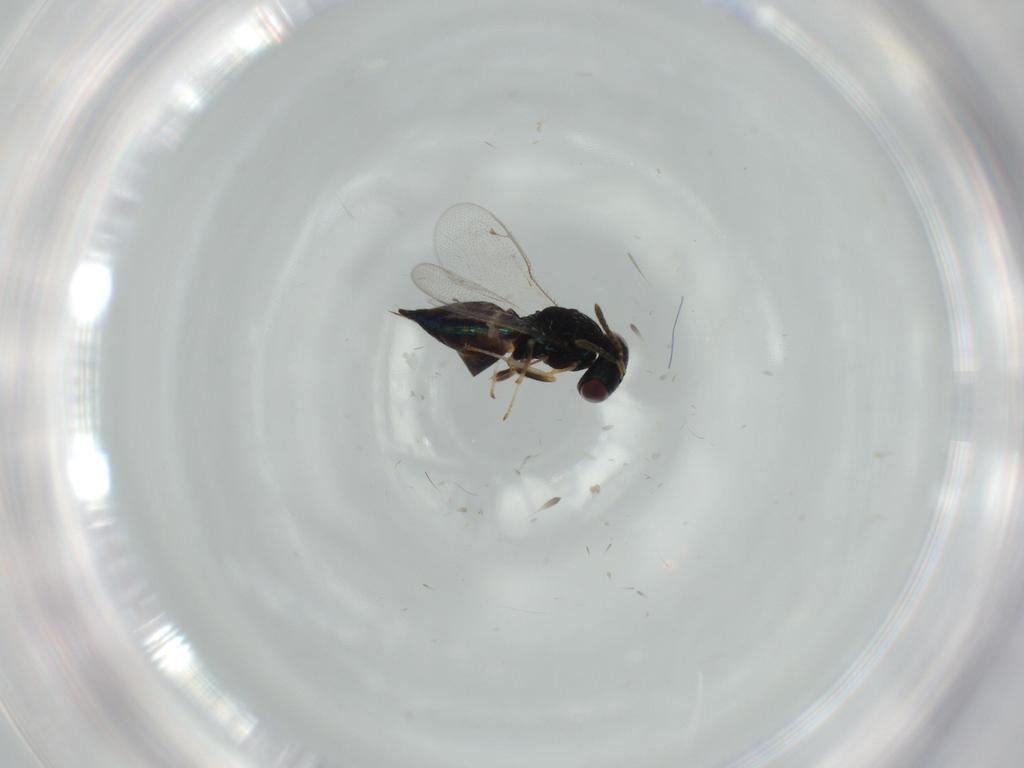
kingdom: Animalia
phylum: Arthropoda
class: Insecta
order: Hymenoptera
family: Pteromalidae
